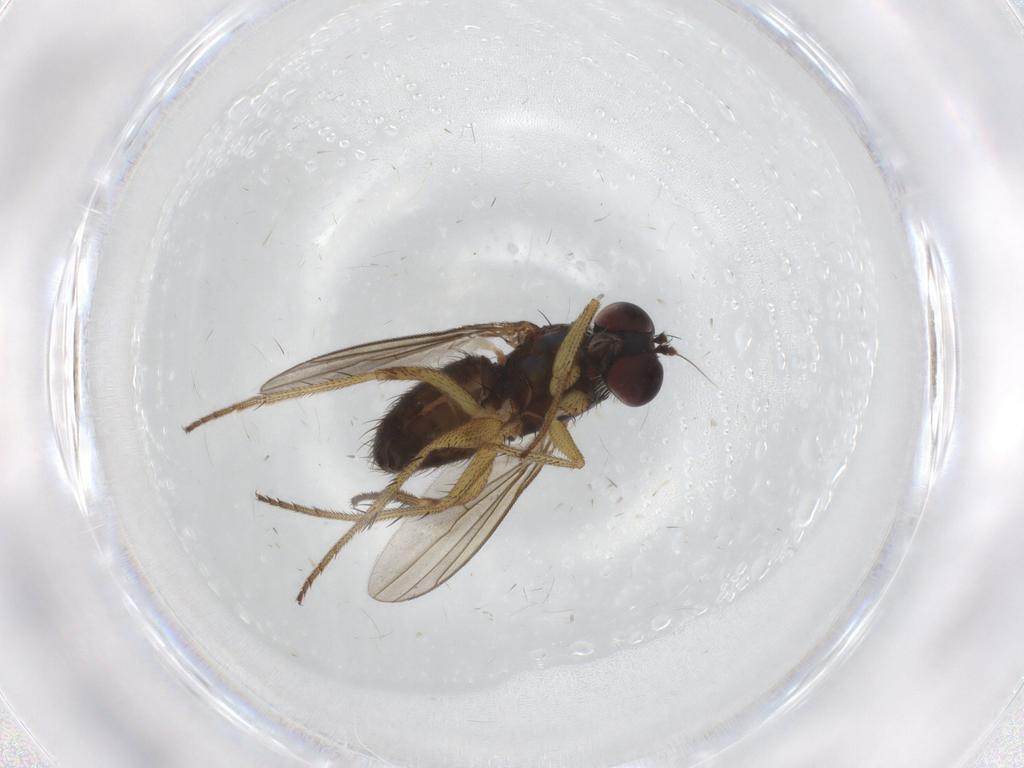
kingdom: Animalia
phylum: Arthropoda
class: Insecta
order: Diptera
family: Dolichopodidae
